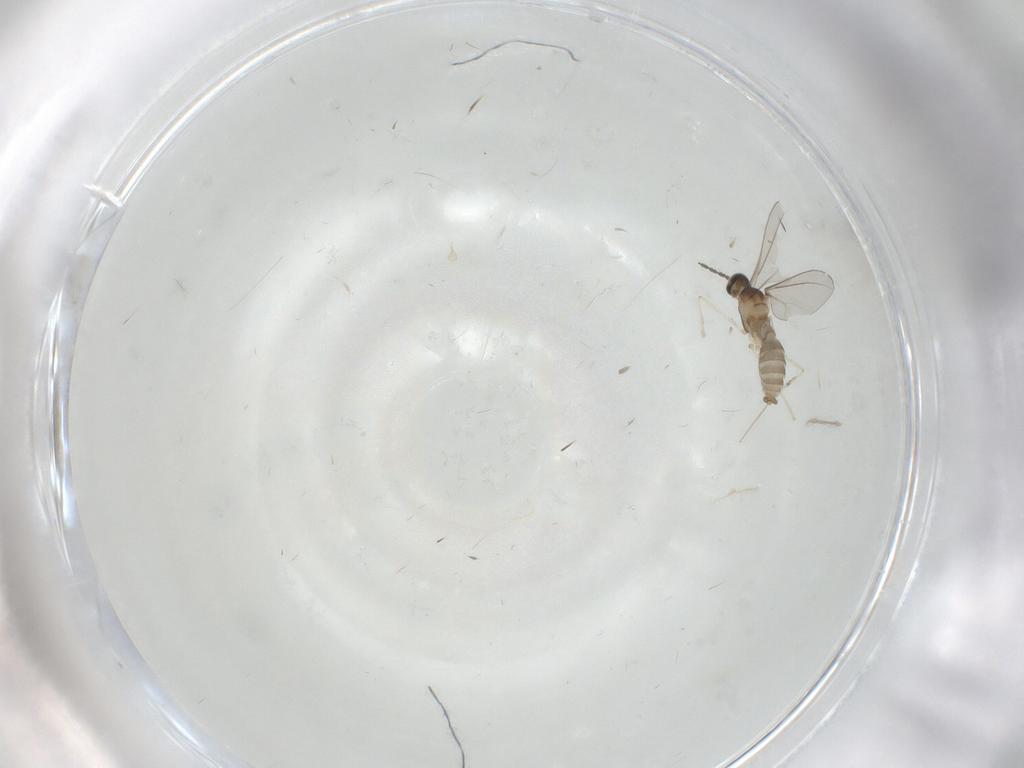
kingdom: Animalia
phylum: Arthropoda
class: Insecta
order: Diptera
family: Cecidomyiidae
